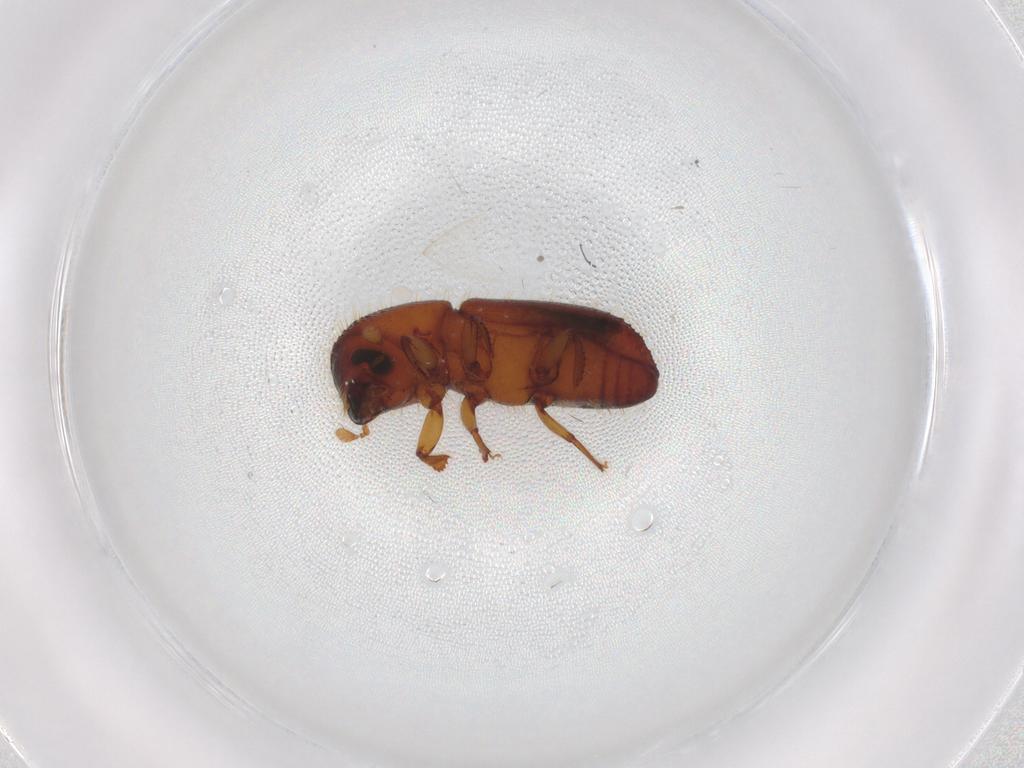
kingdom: Animalia
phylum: Arthropoda
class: Insecta
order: Coleoptera
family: Curculionidae
